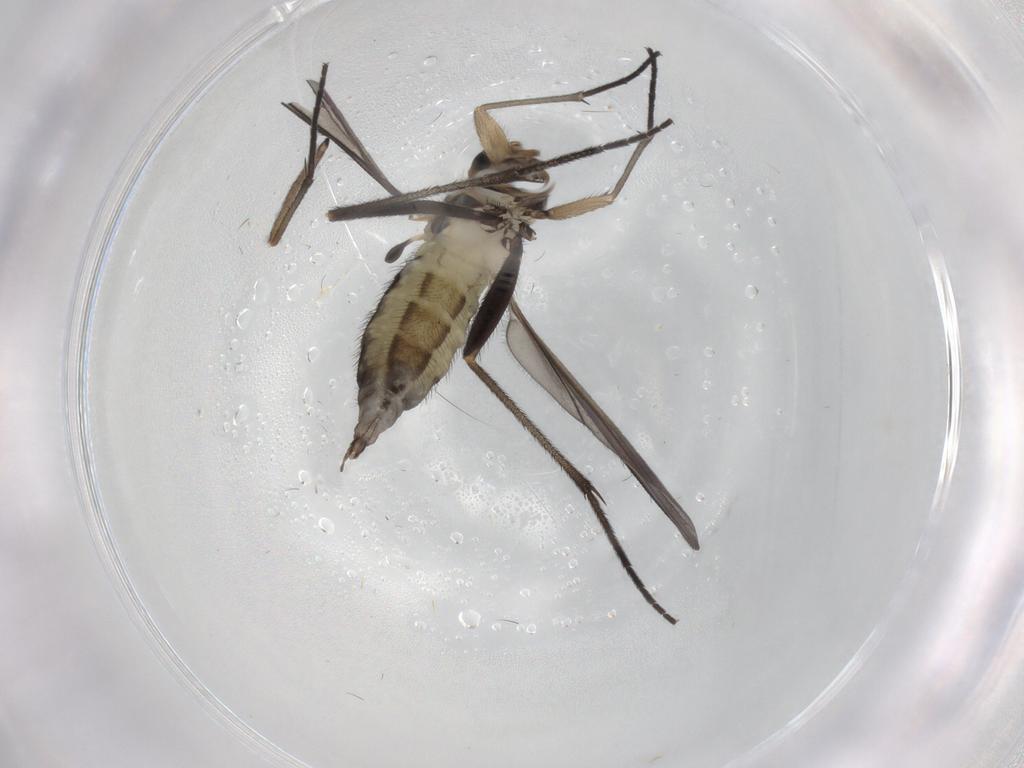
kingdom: Animalia
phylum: Arthropoda
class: Insecta
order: Diptera
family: Sciaridae
